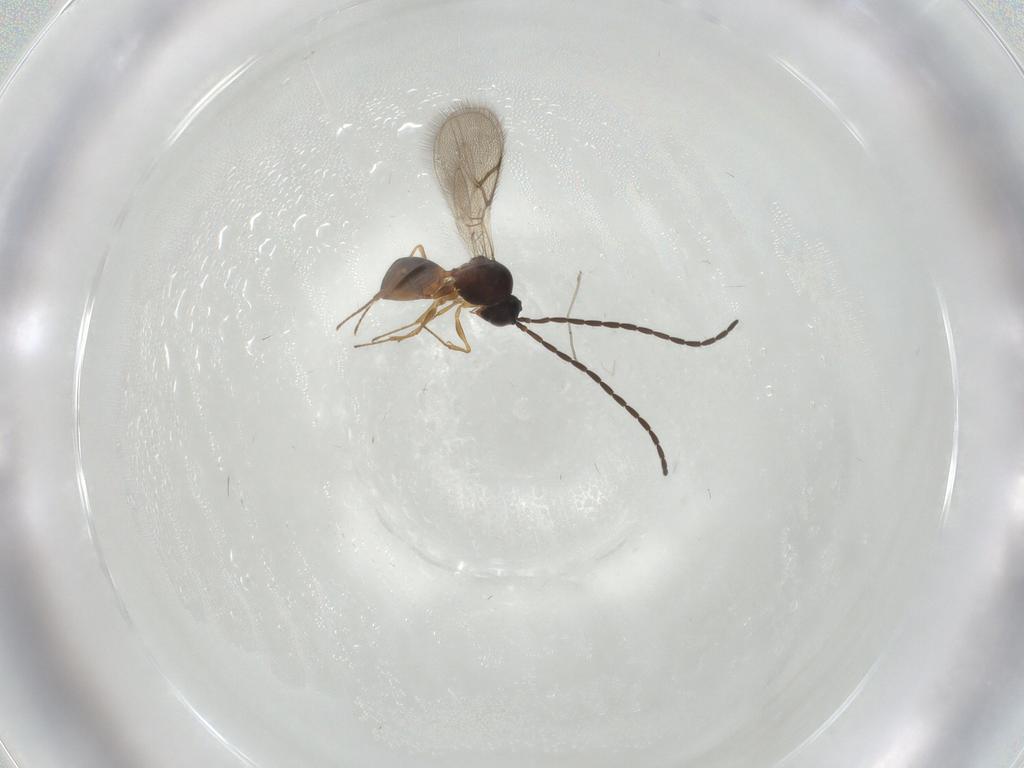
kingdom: Animalia
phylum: Arthropoda
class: Insecta
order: Hymenoptera
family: Figitidae
